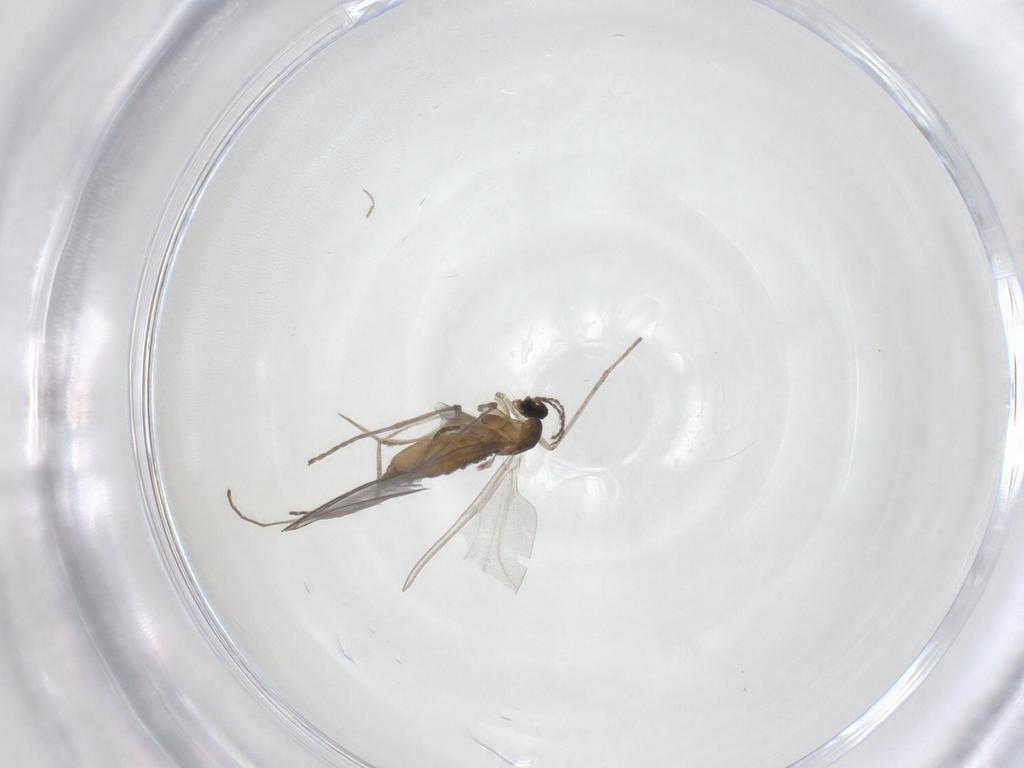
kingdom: Animalia
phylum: Arthropoda
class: Insecta
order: Diptera
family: Cecidomyiidae
